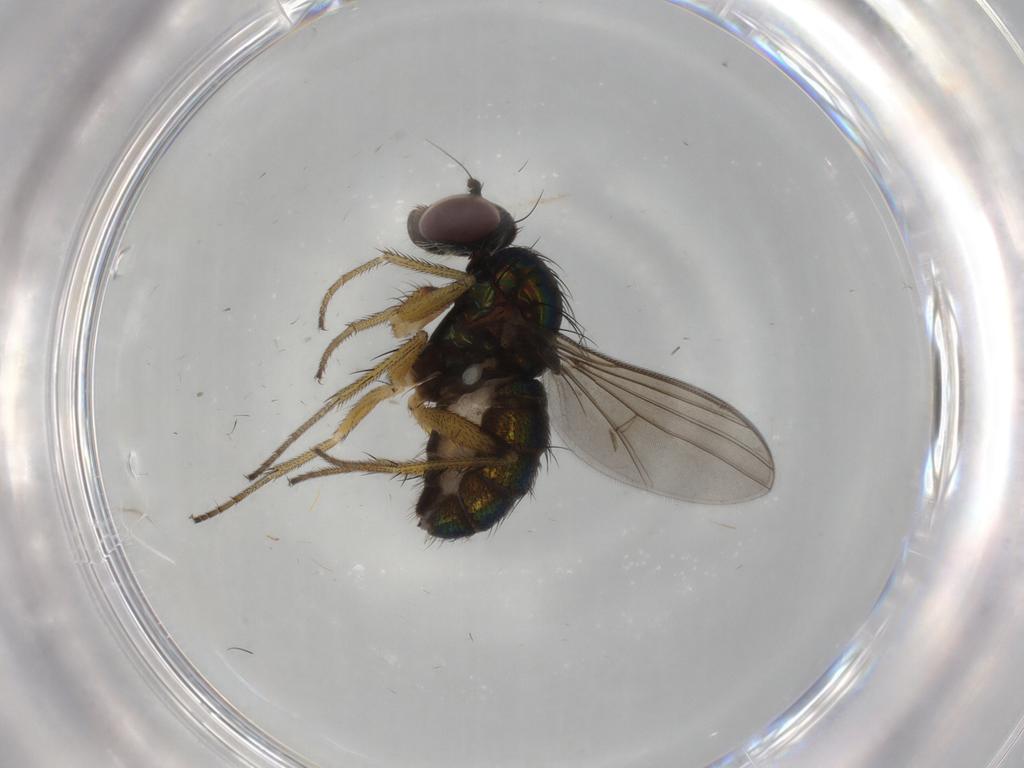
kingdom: Animalia
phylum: Arthropoda
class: Insecta
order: Diptera
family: Dolichopodidae
